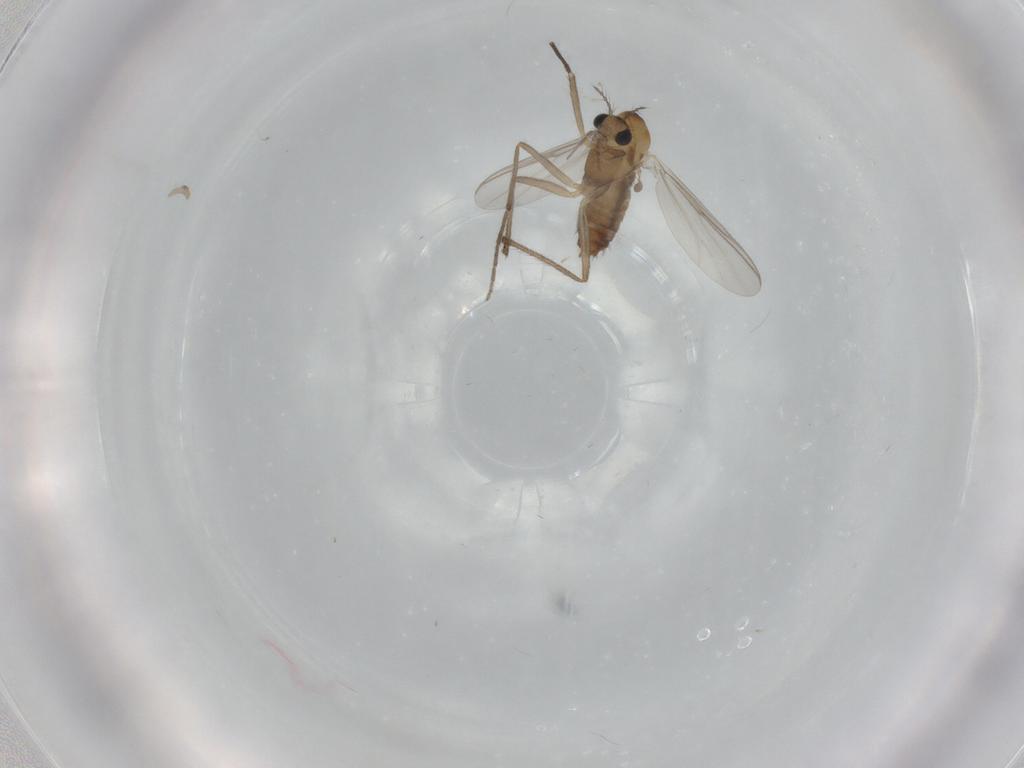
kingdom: Animalia
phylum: Arthropoda
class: Insecta
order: Diptera
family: Chironomidae
